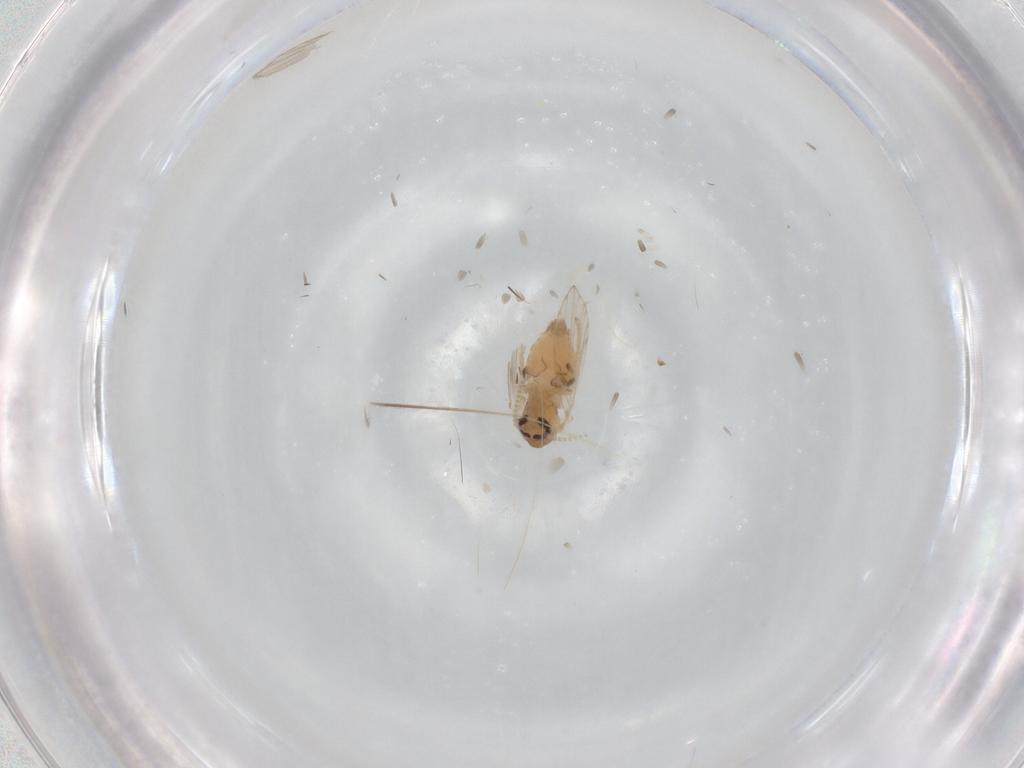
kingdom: Animalia
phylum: Arthropoda
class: Insecta
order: Diptera
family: Psychodidae
